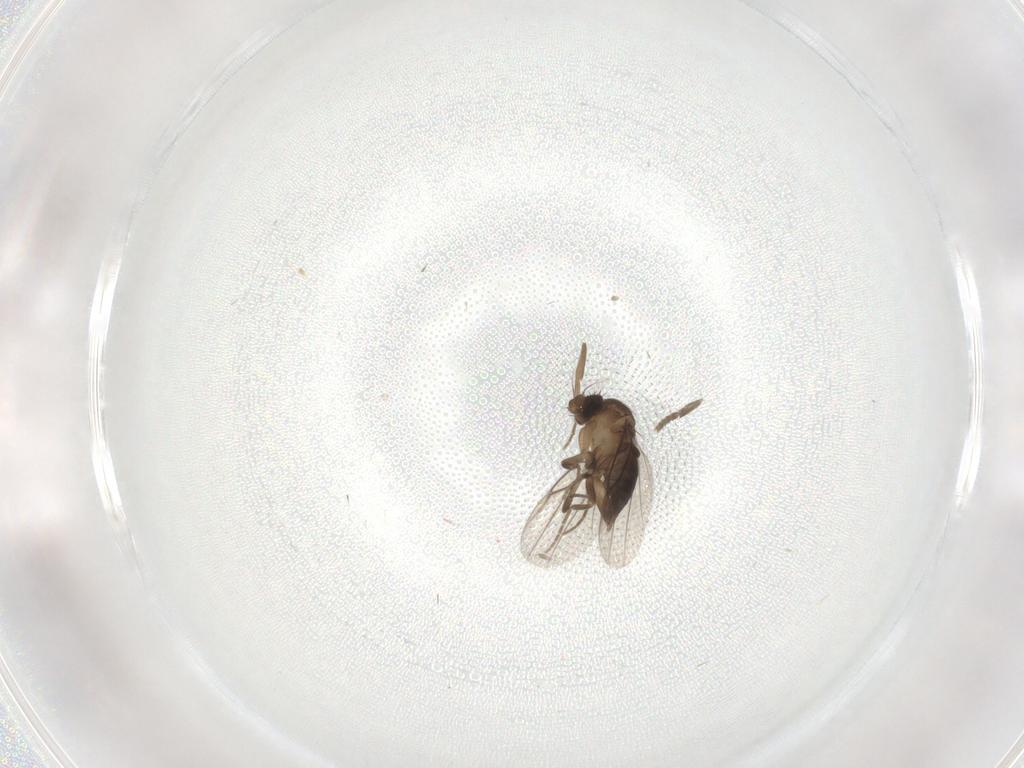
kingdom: Animalia
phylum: Arthropoda
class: Insecta
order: Diptera
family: Phoridae
